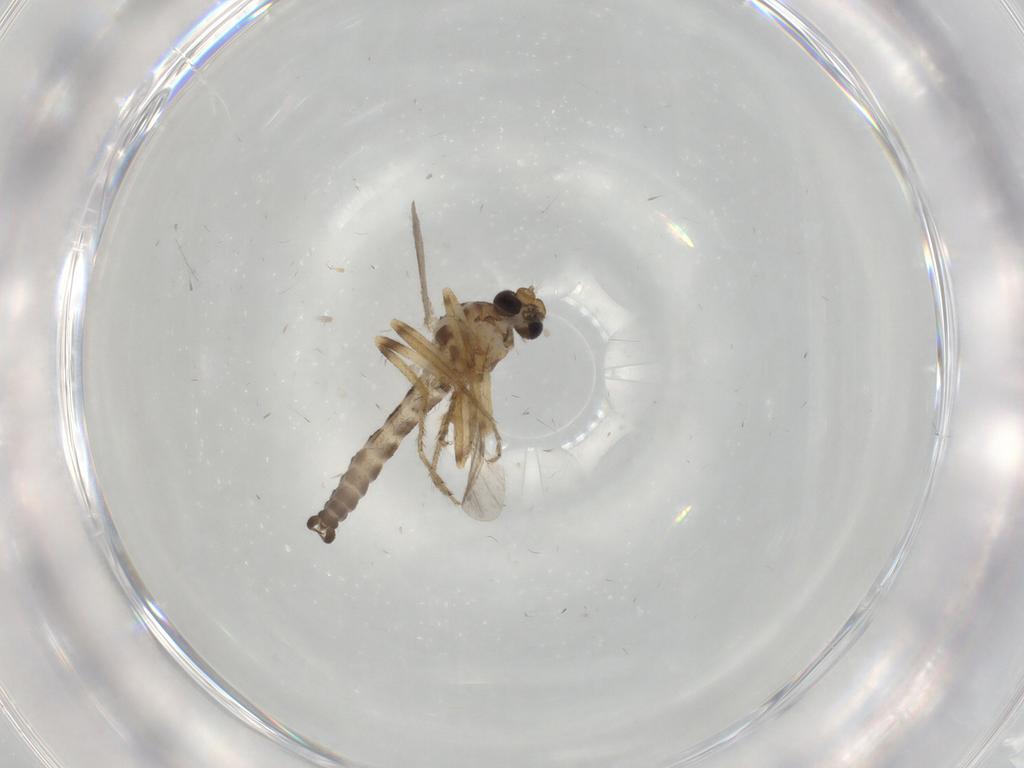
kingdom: Animalia
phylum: Arthropoda
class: Insecta
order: Diptera
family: Ceratopogonidae
